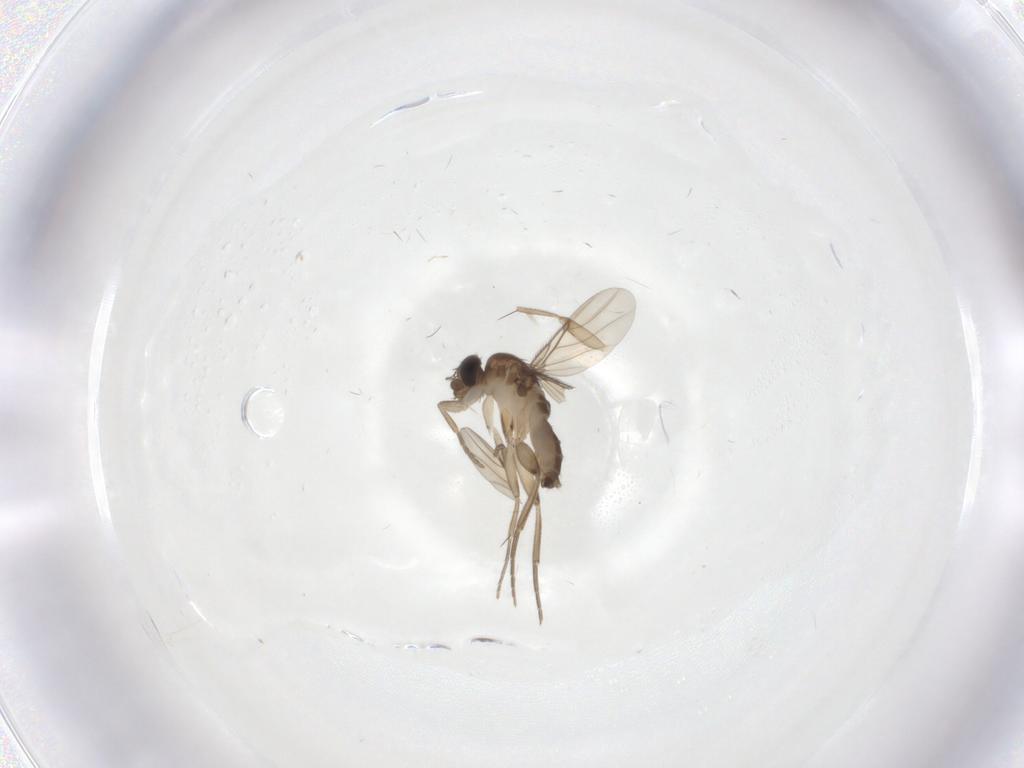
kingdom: Animalia
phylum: Arthropoda
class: Insecta
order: Diptera
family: Phoridae
